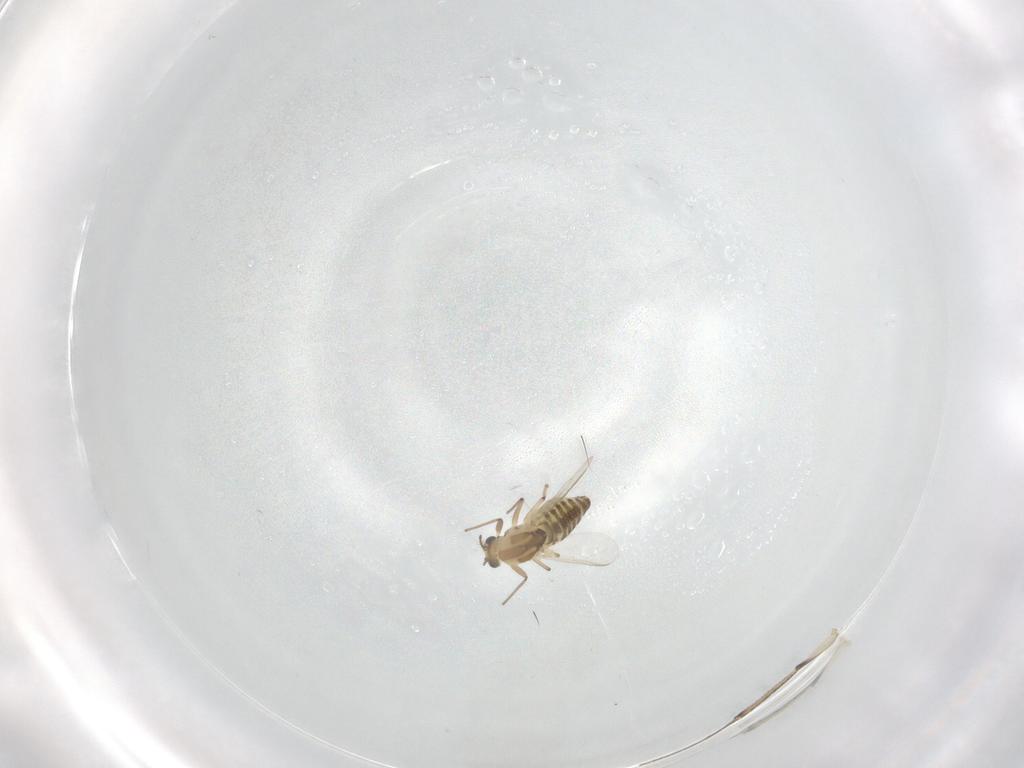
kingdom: Animalia
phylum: Arthropoda
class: Insecta
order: Diptera
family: Chironomidae
